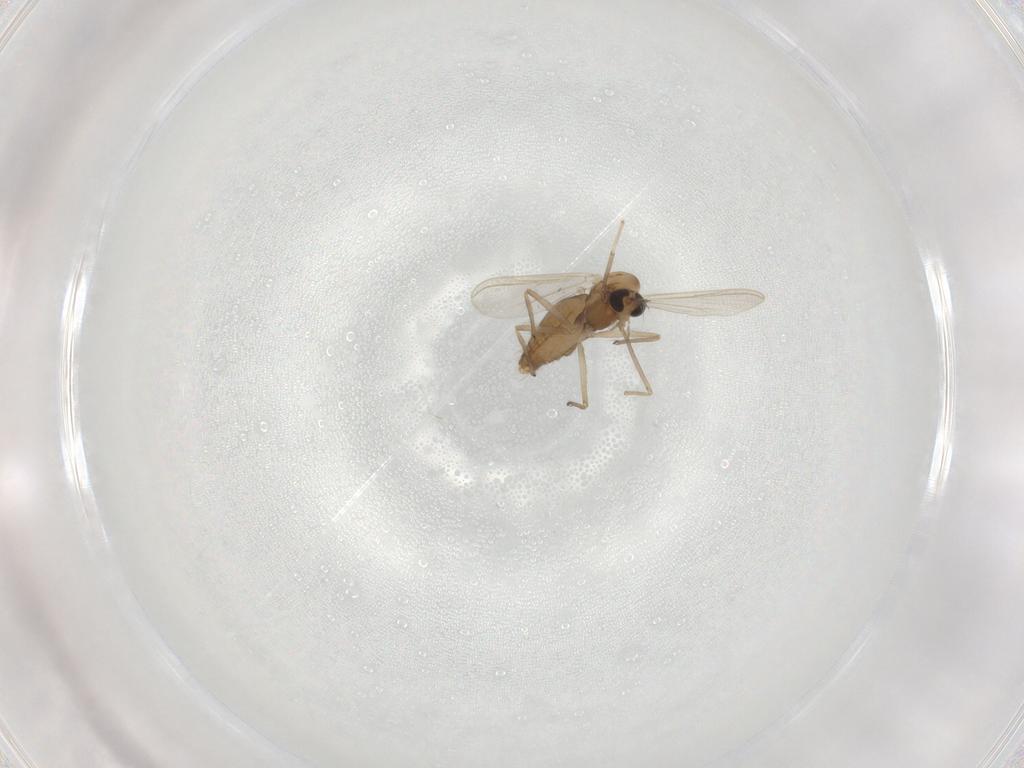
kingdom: Animalia
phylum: Arthropoda
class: Insecta
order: Diptera
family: Chironomidae
